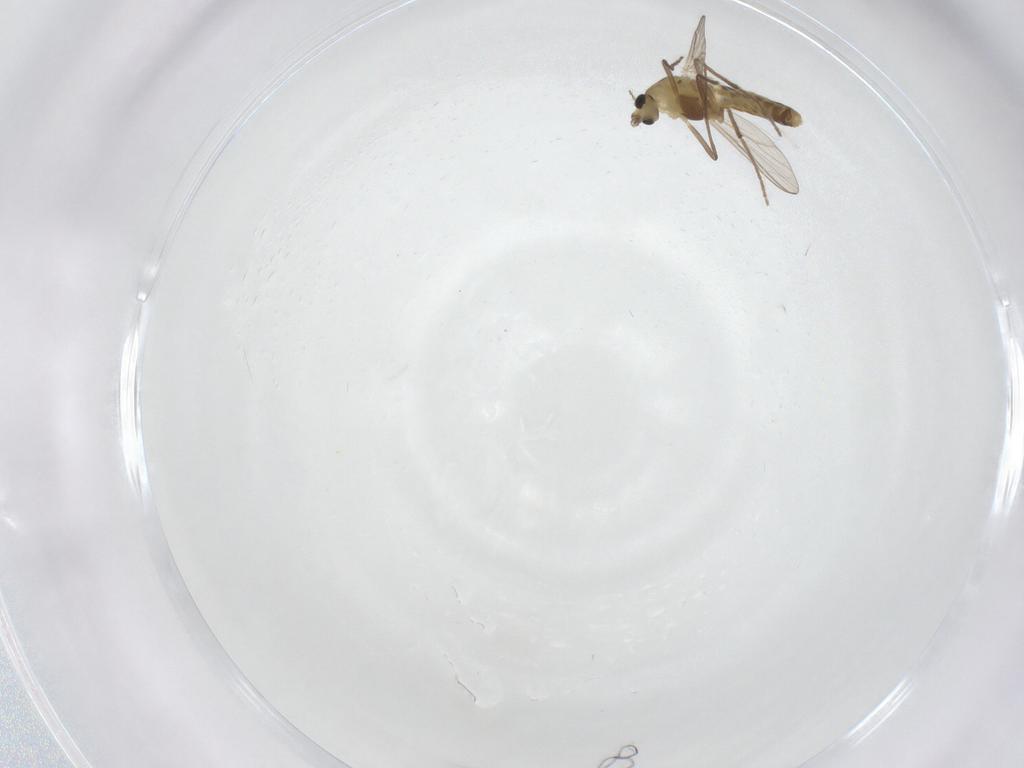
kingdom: Animalia
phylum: Arthropoda
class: Insecta
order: Diptera
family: Chironomidae
